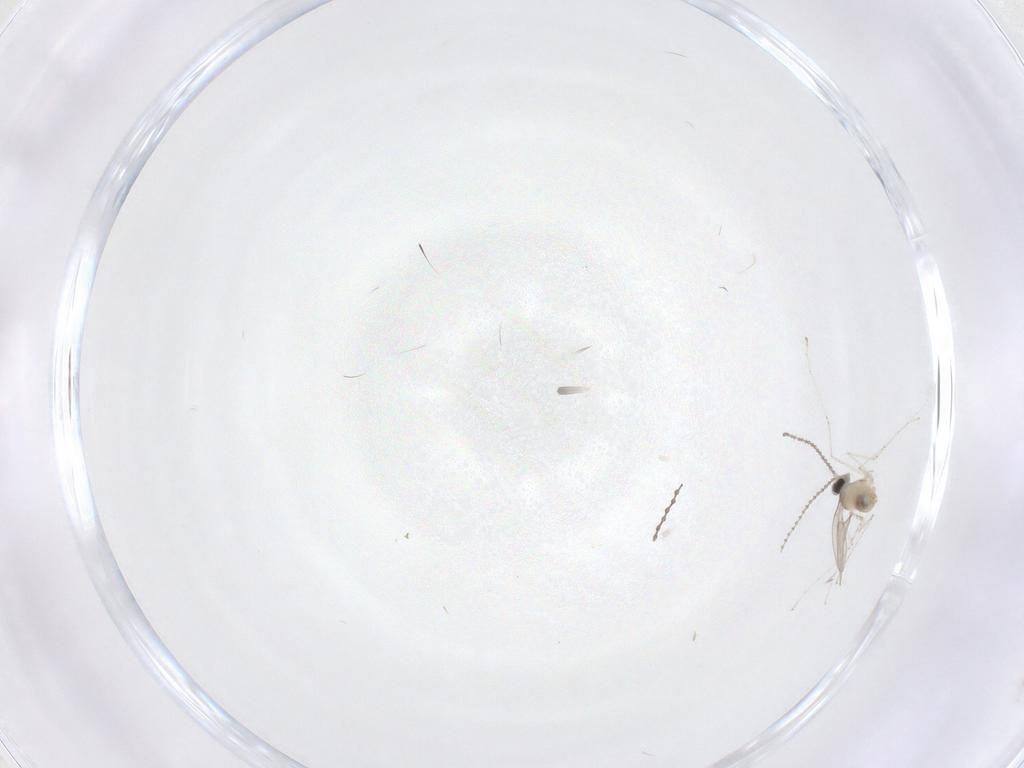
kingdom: Animalia
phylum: Arthropoda
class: Insecta
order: Diptera
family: Cecidomyiidae
